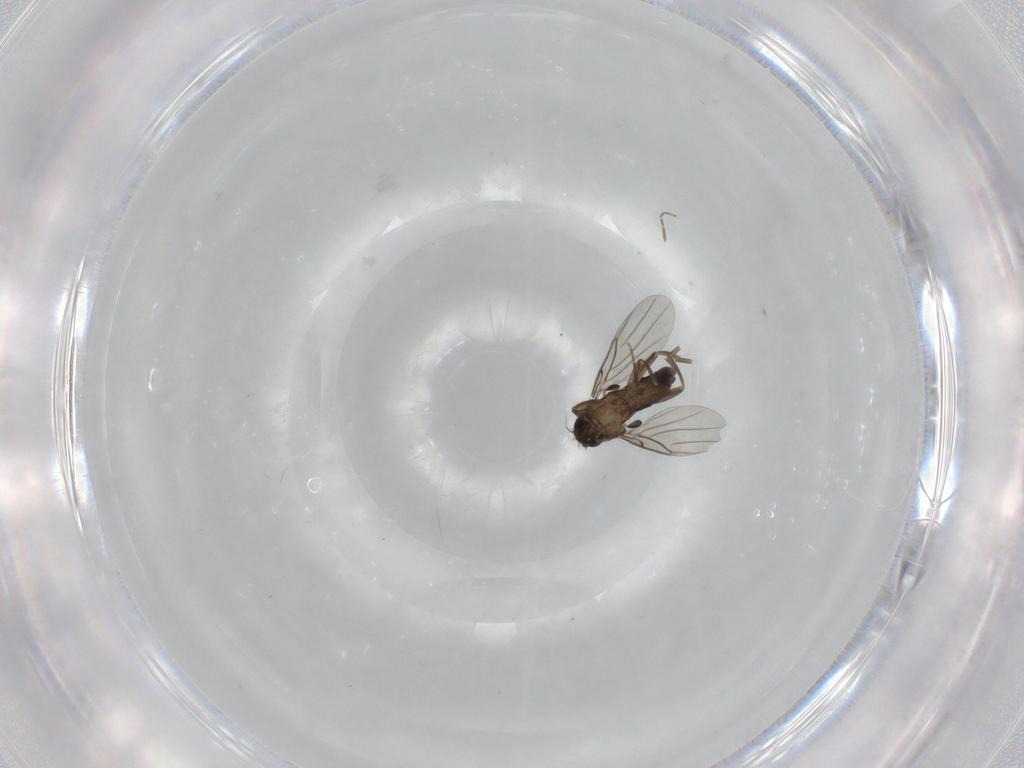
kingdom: Animalia
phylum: Arthropoda
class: Insecta
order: Diptera
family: Phoridae
